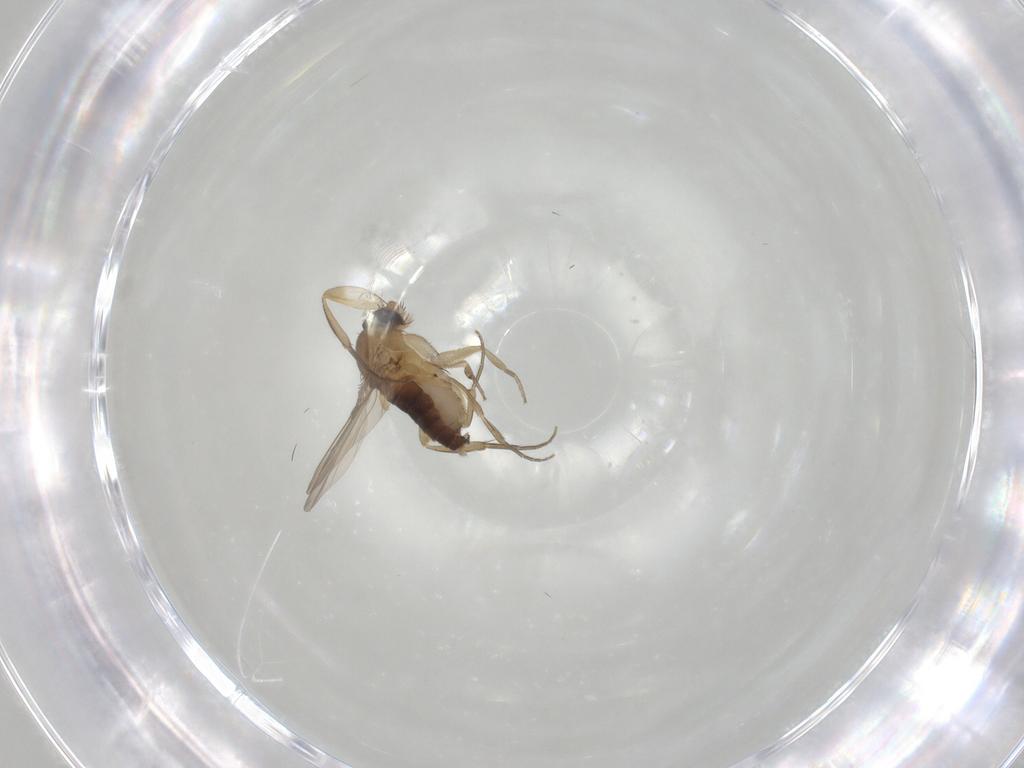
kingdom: Animalia
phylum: Arthropoda
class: Insecta
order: Diptera
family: Phoridae
